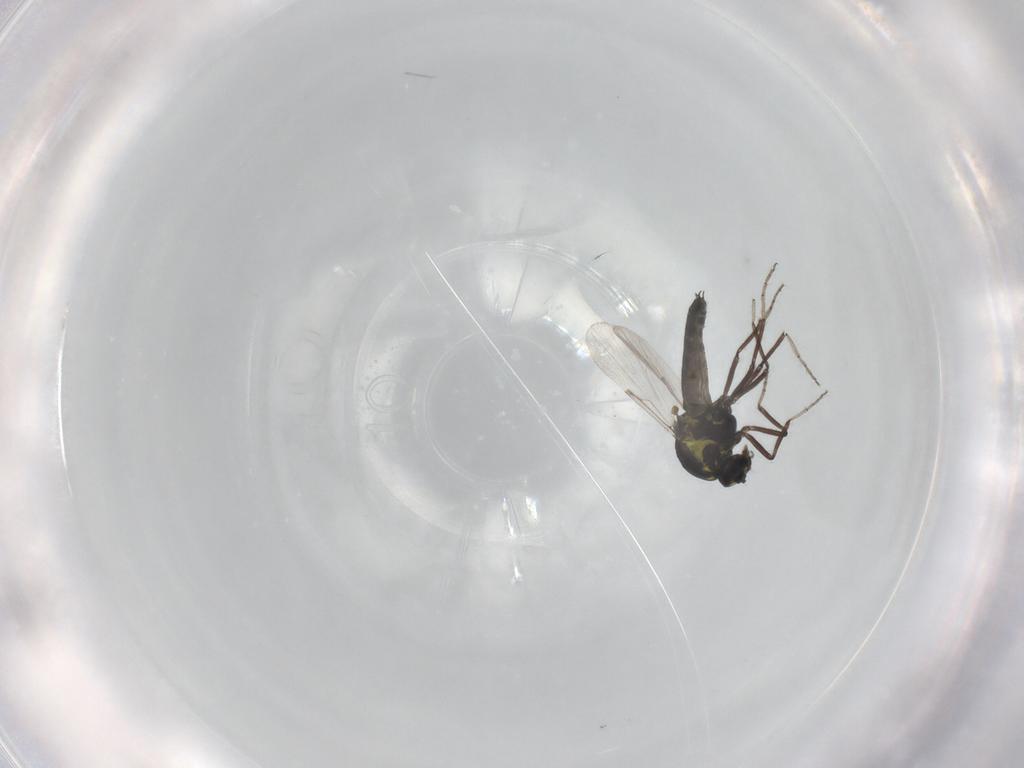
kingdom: Animalia
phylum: Arthropoda
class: Insecta
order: Diptera
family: Ceratopogonidae
